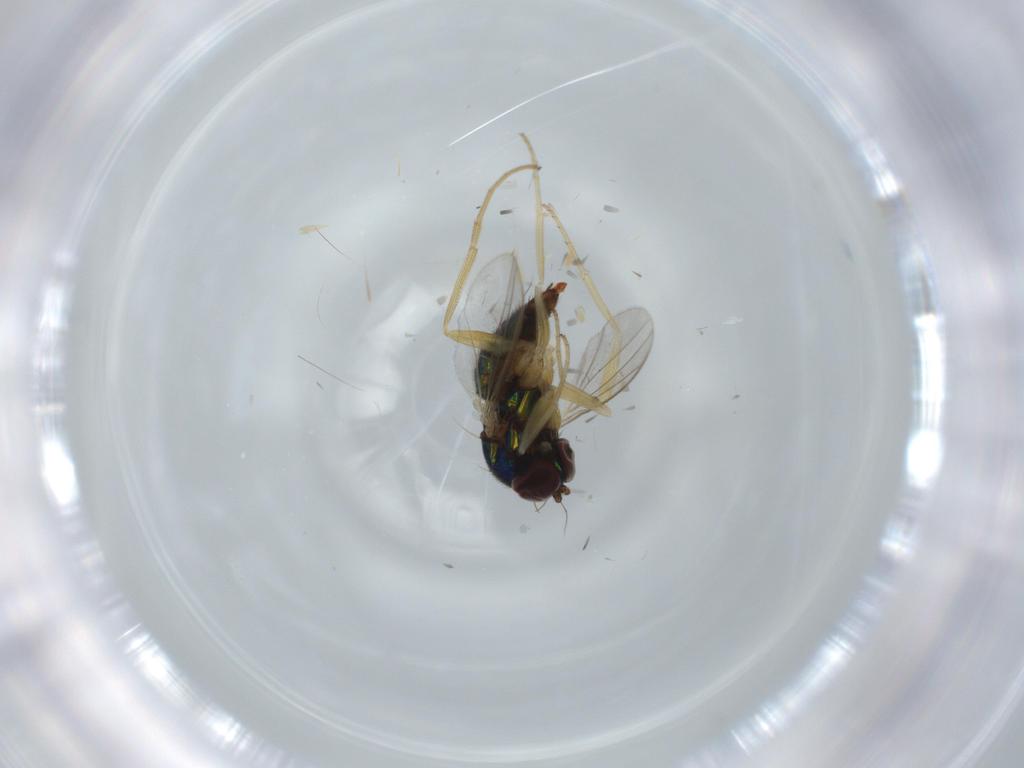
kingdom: Animalia
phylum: Arthropoda
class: Insecta
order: Diptera
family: Dolichopodidae
